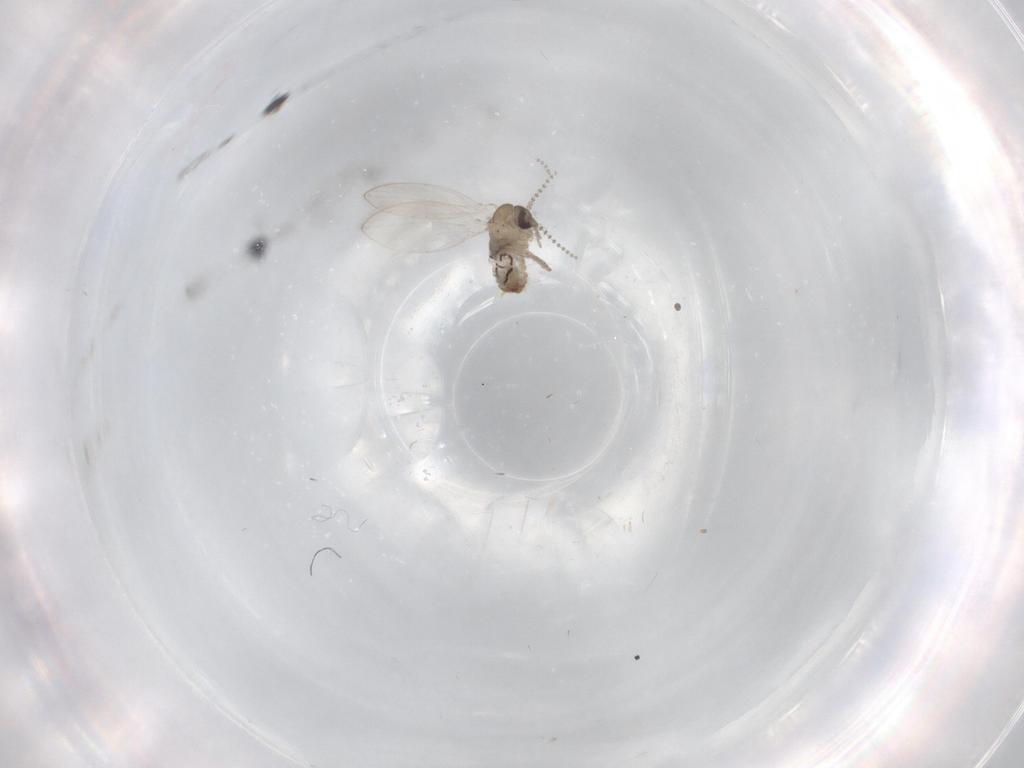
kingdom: Animalia
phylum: Arthropoda
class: Insecta
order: Diptera
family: Psychodidae
